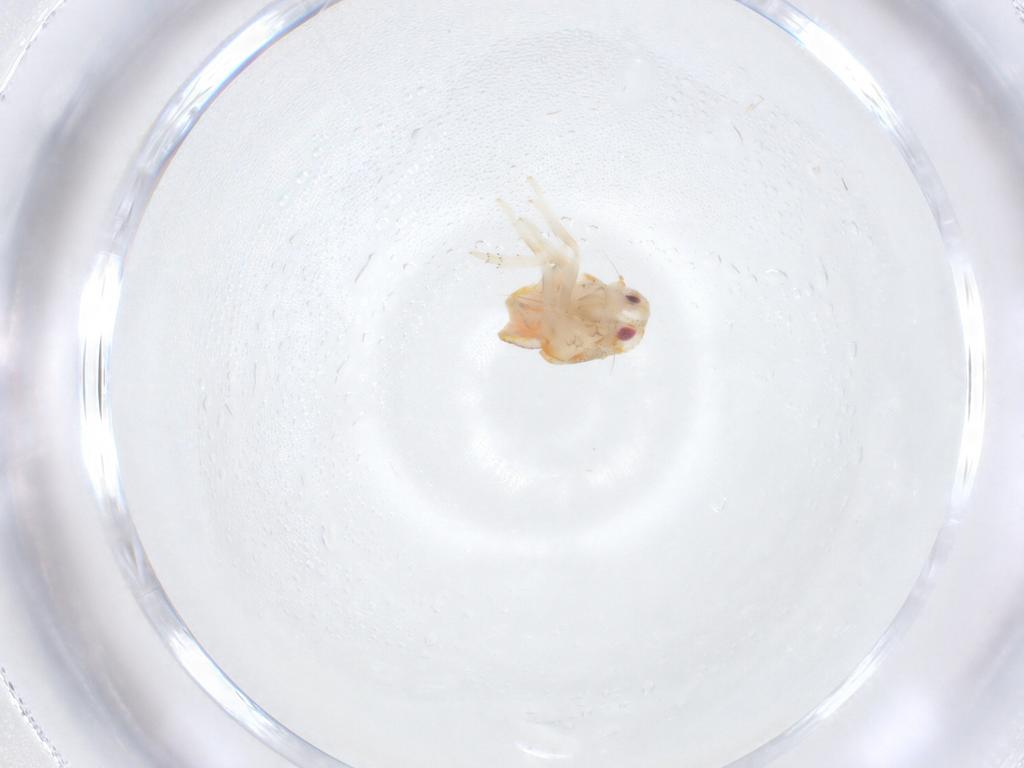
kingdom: Animalia
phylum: Arthropoda
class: Insecta
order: Hemiptera
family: Flatidae
